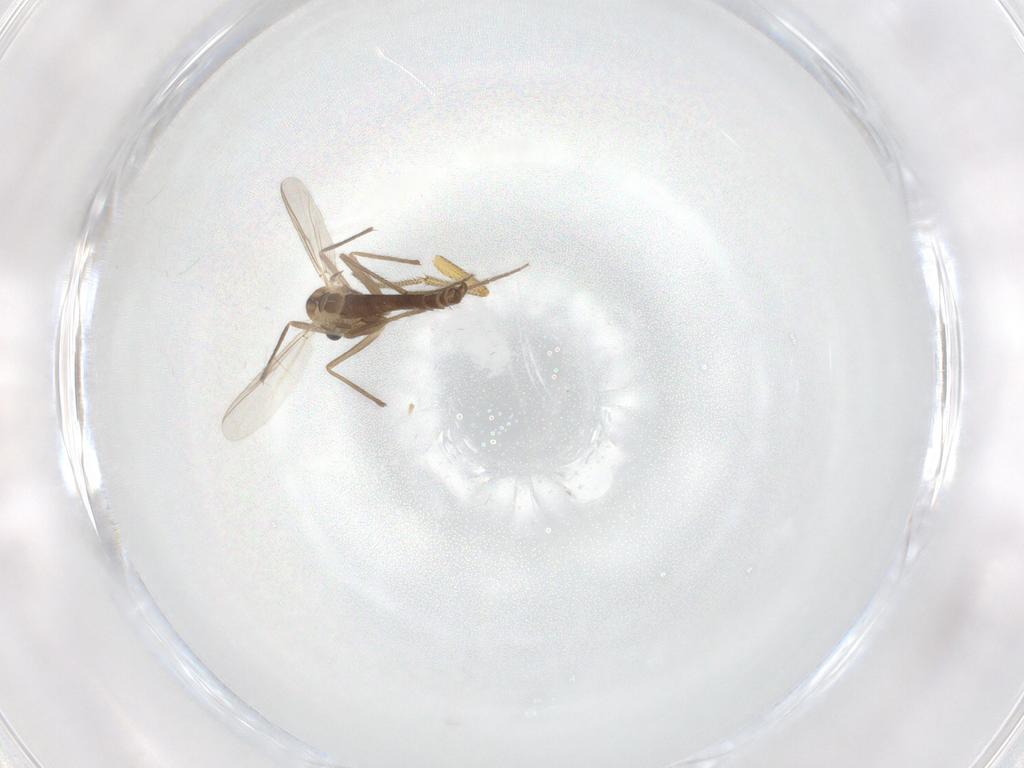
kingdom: Animalia
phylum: Arthropoda
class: Insecta
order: Diptera
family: Chironomidae
